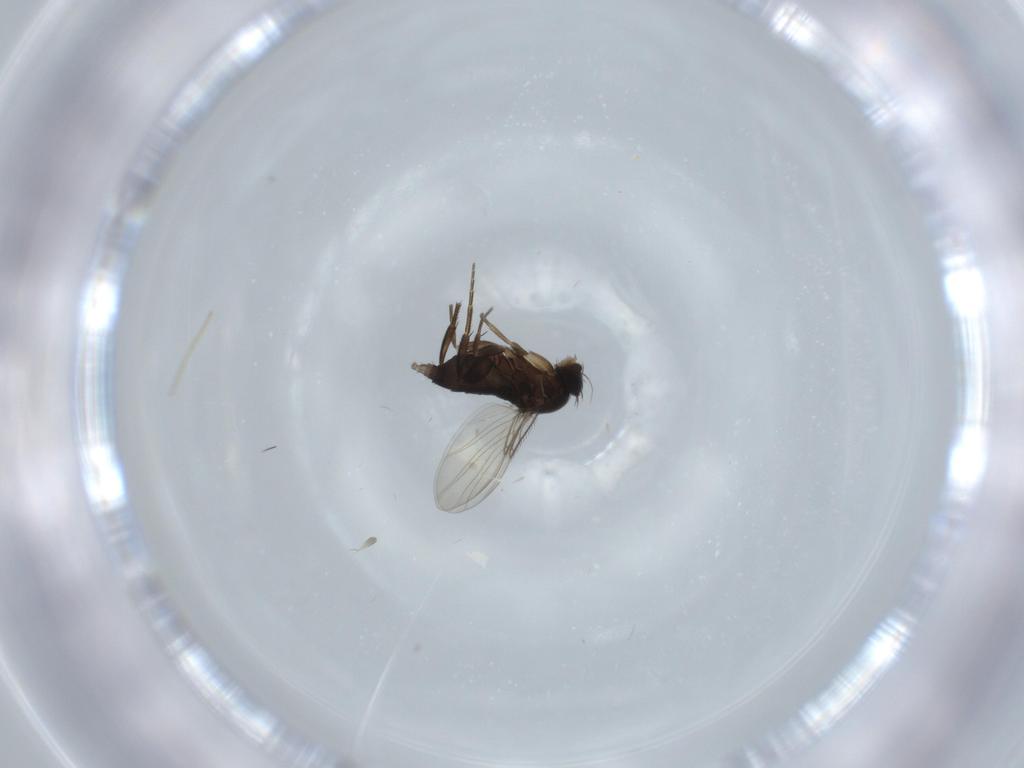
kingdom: Animalia
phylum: Arthropoda
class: Insecta
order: Diptera
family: Phoridae
